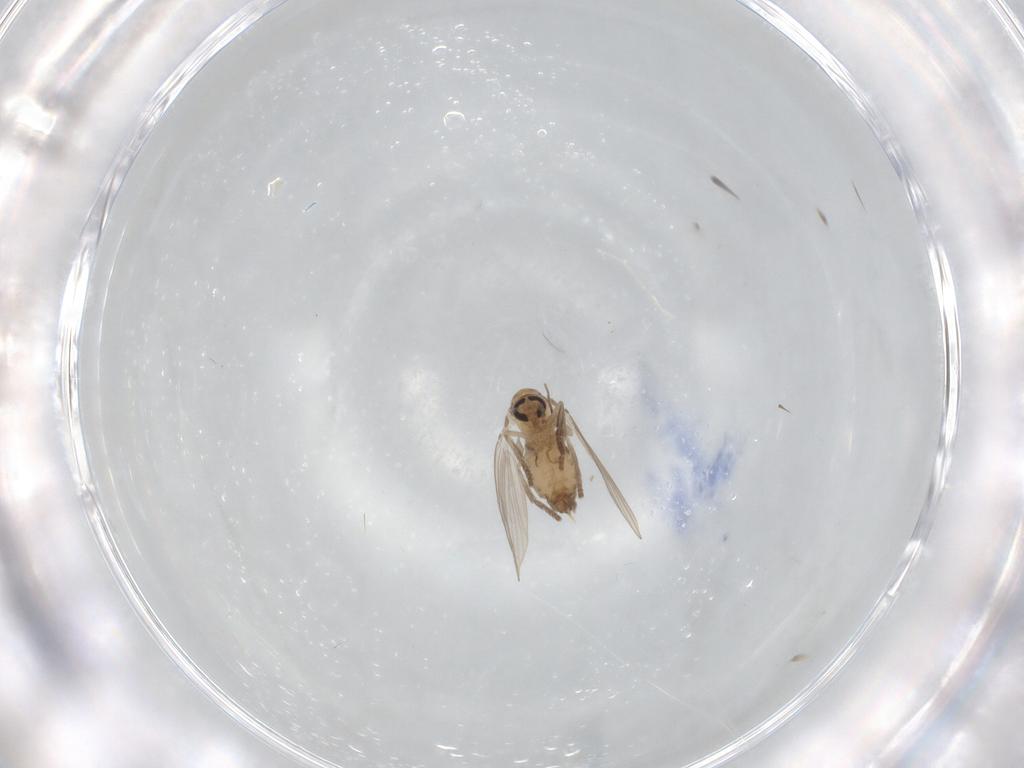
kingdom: Animalia
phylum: Arthropoda
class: Insecta
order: Diptera
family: Psychodidae
